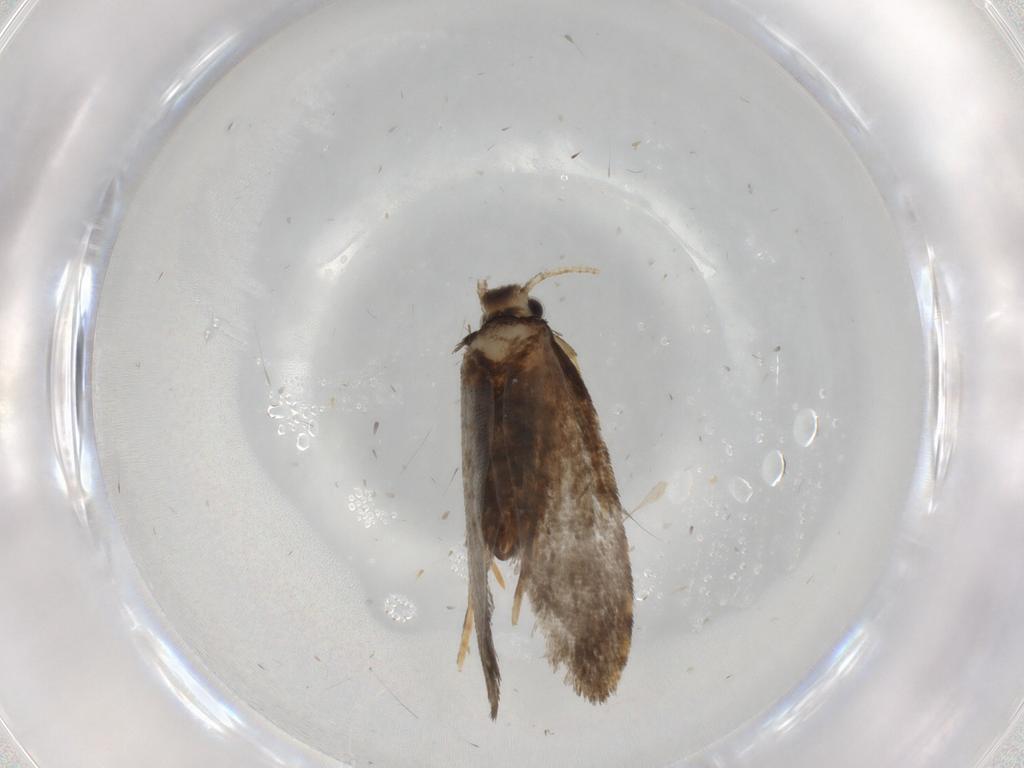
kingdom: Animalia
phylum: Arthropoda
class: Insecta
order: Lepidoptera
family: Psychidae
